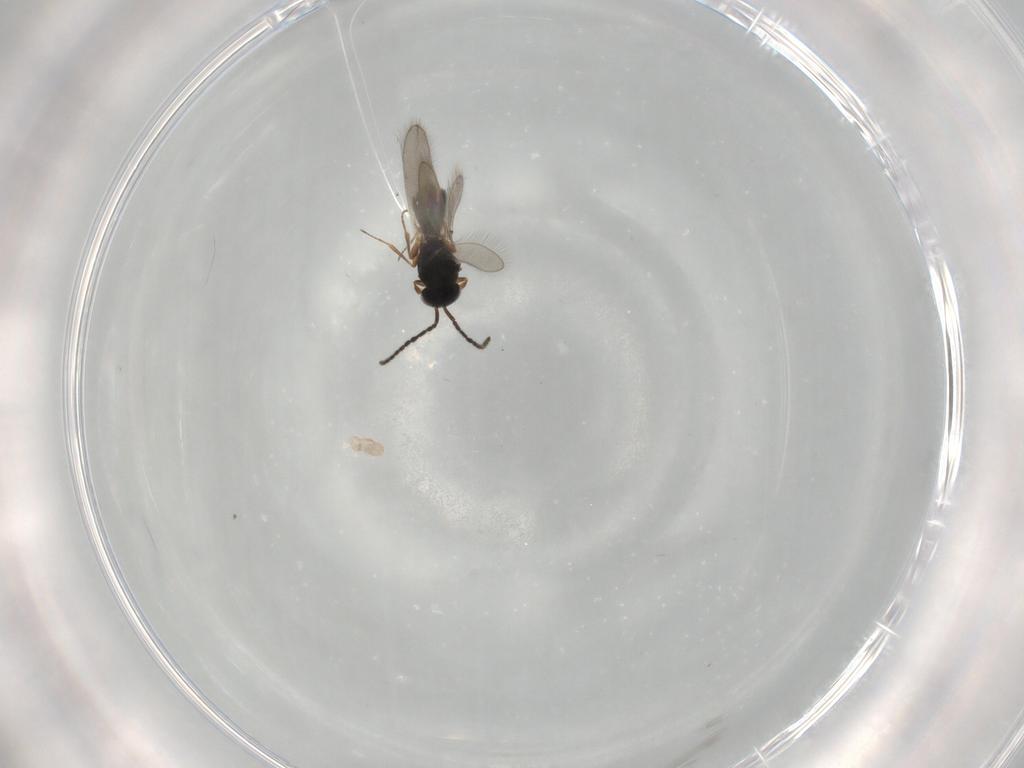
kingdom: Animalia
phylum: Arthropoda
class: Insecta
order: Hymenoptera
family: Scelionidae
